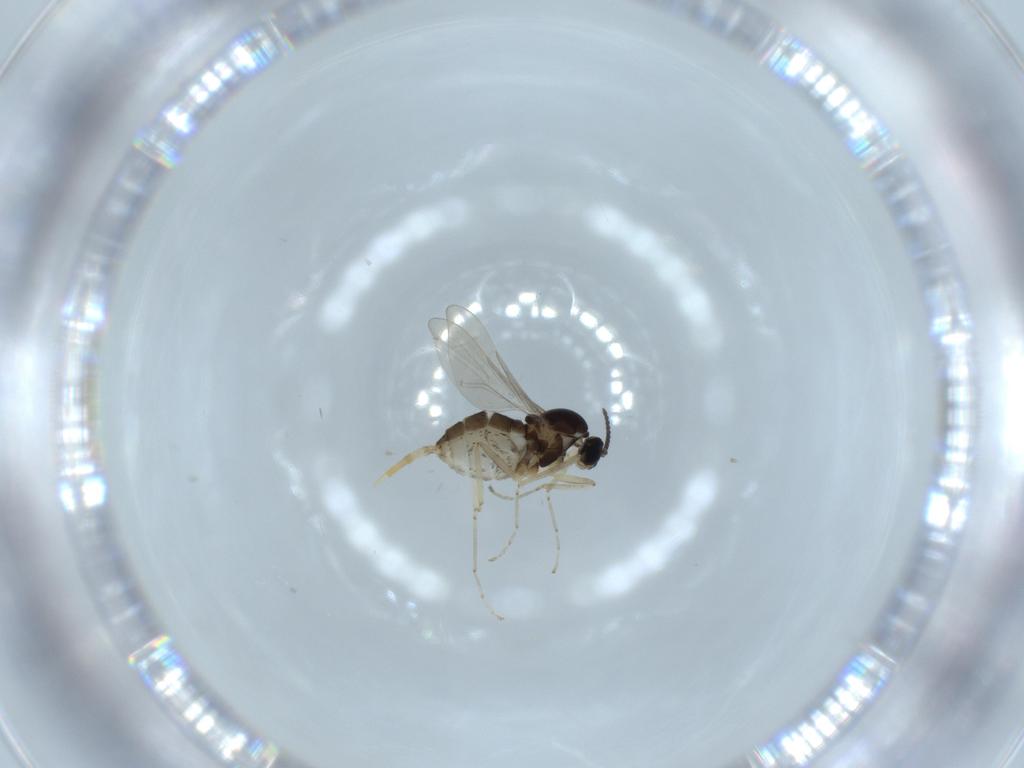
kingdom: Animalia
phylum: Arthropoda
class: Insecta
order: Diptera
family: Cecidomyiidae
